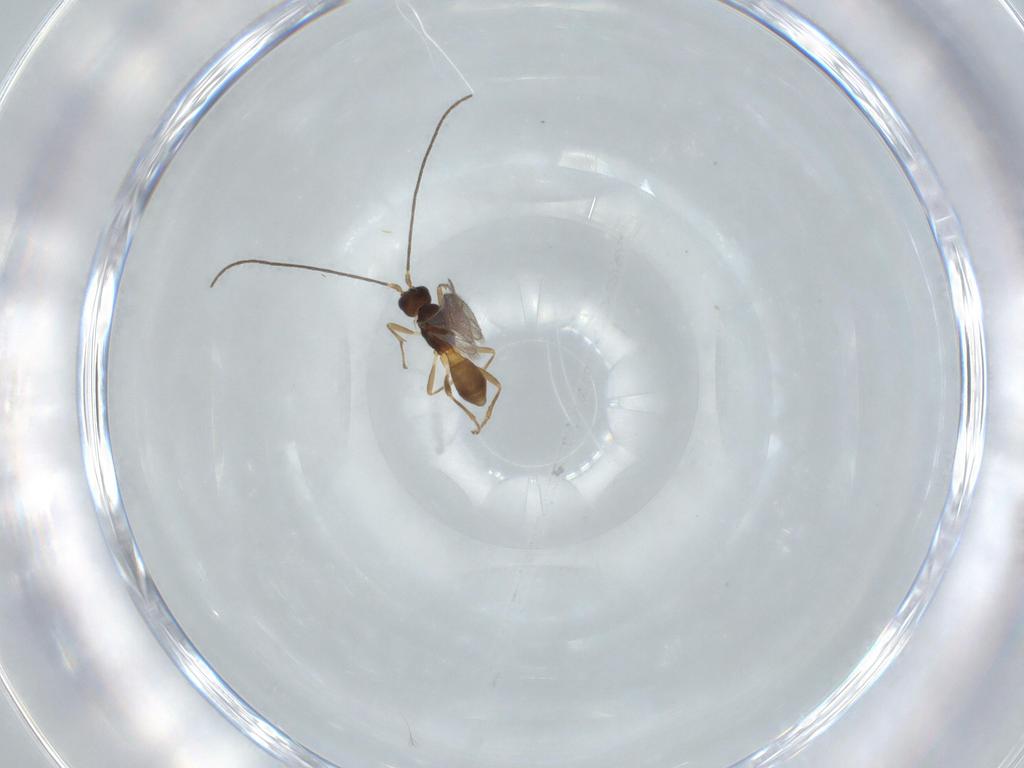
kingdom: Animalia
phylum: Arthropoda
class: Insecta
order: Hymenoptera
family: Braconidae
